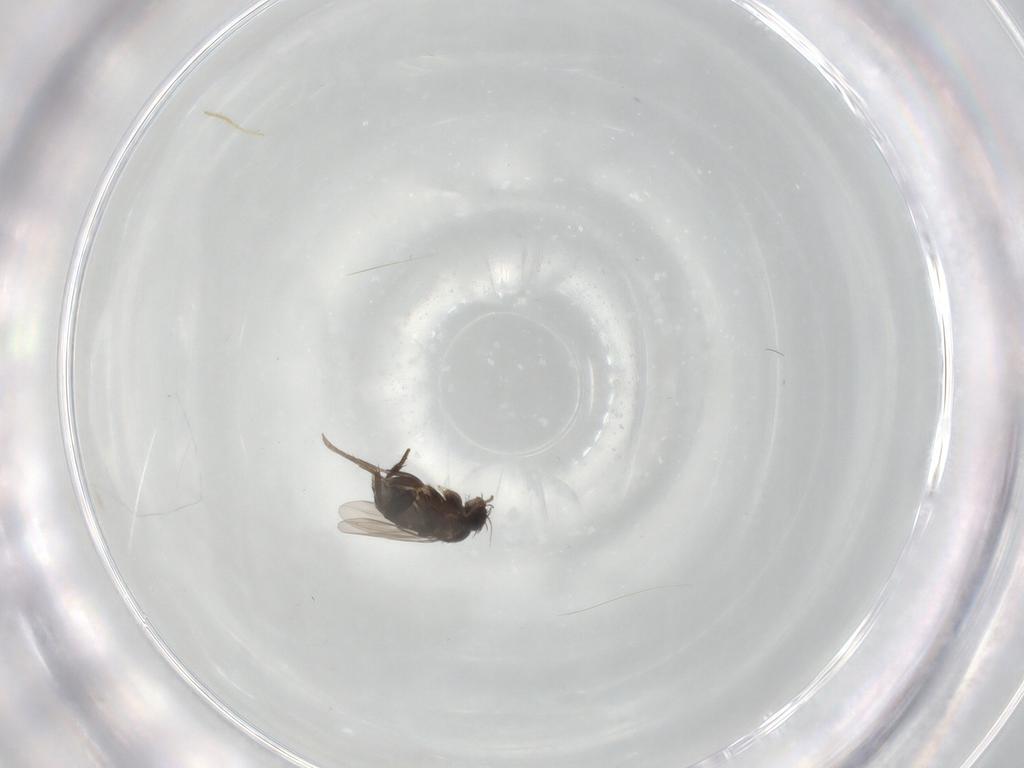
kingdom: Animalia
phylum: Arthropoda
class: Insecta
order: Diptera
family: Phoridae
